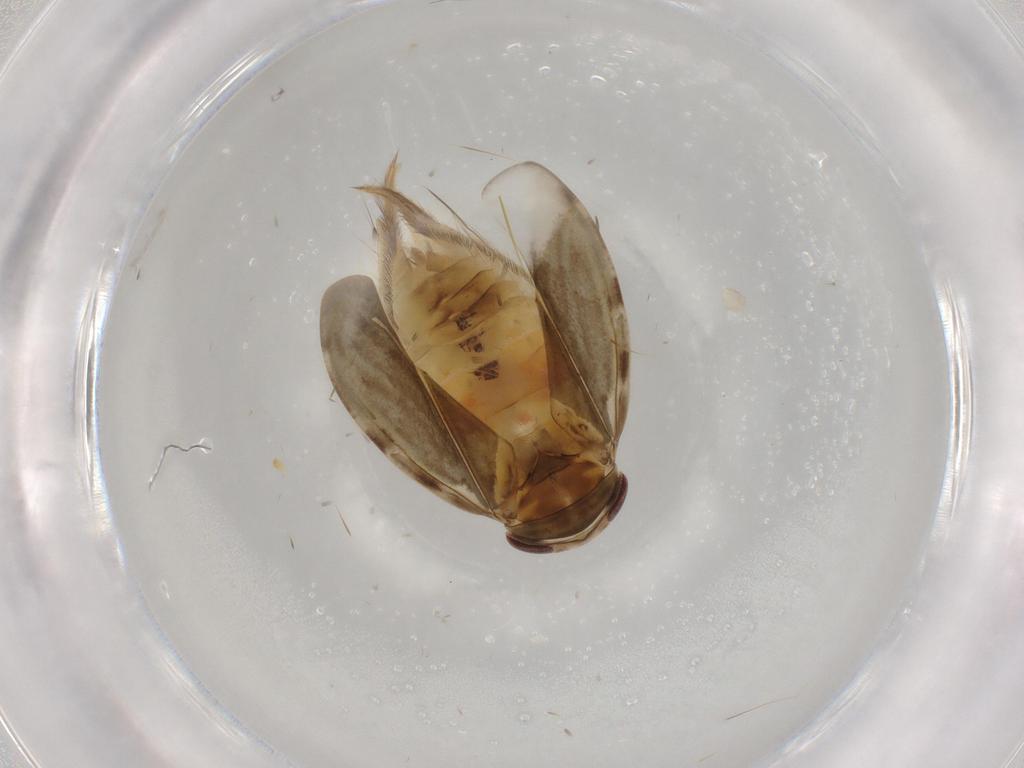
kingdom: Animalia
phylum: Arthropoda
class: Insecta
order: Hemiptera
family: Corixidae
